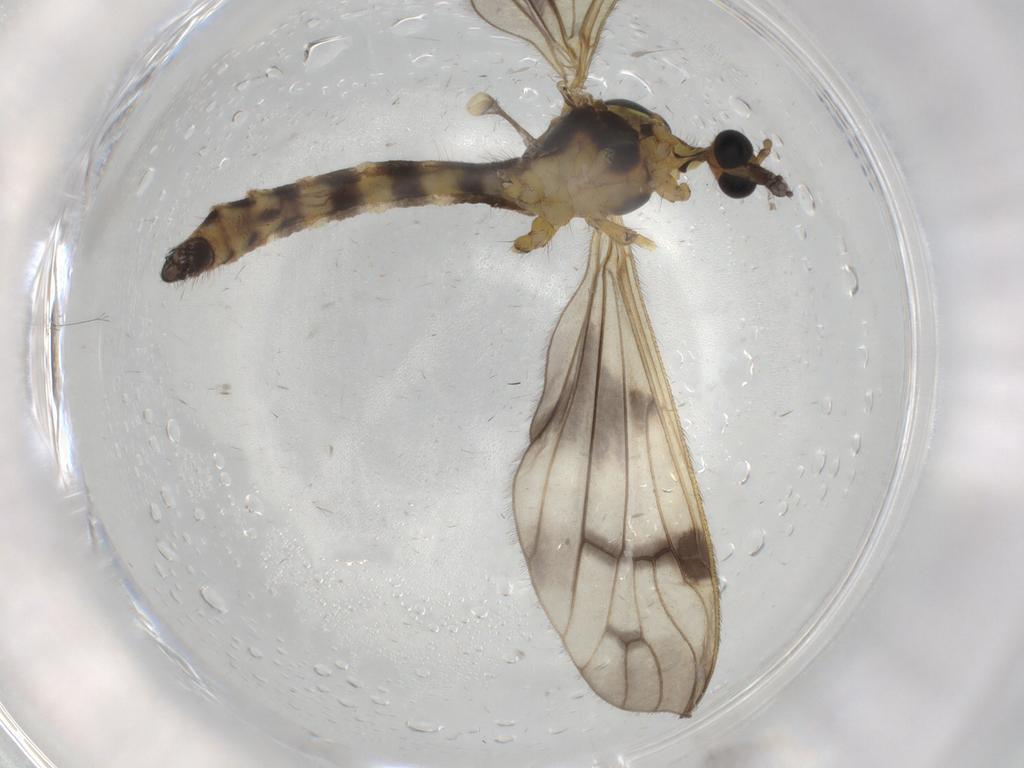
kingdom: Animalia
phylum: Arthropoda
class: Insecta
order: Diptera
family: Limoniidae
